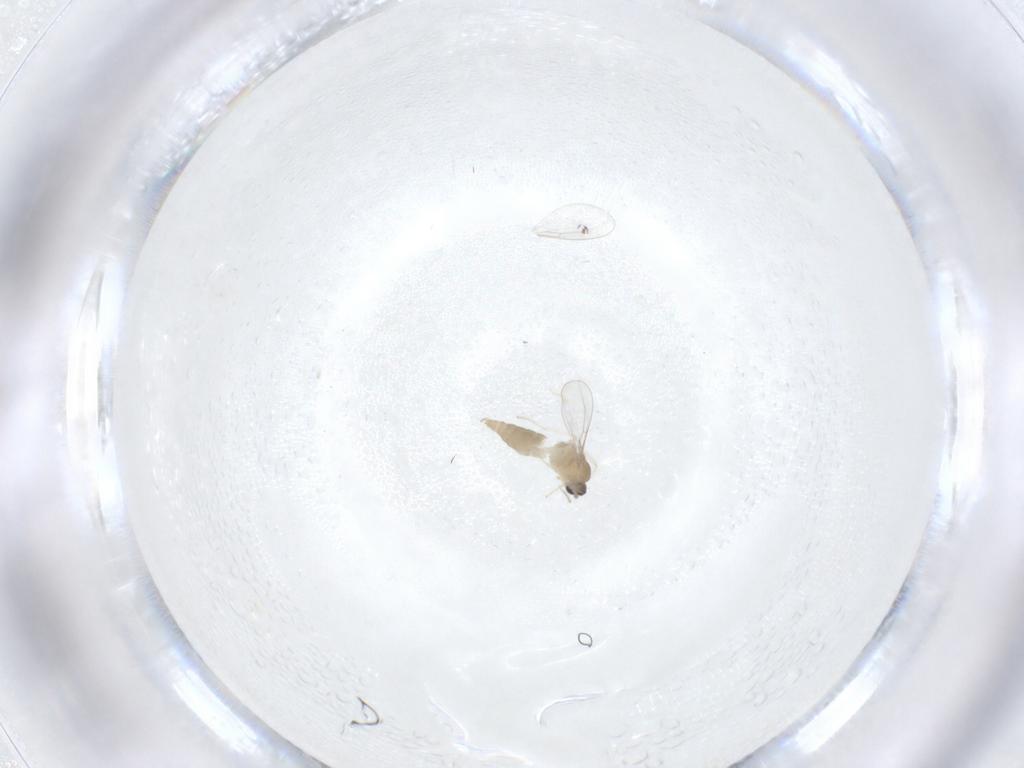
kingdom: Animalia
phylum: Arthropoda
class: Insecta
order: Diptera
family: Cecidomyiidae
